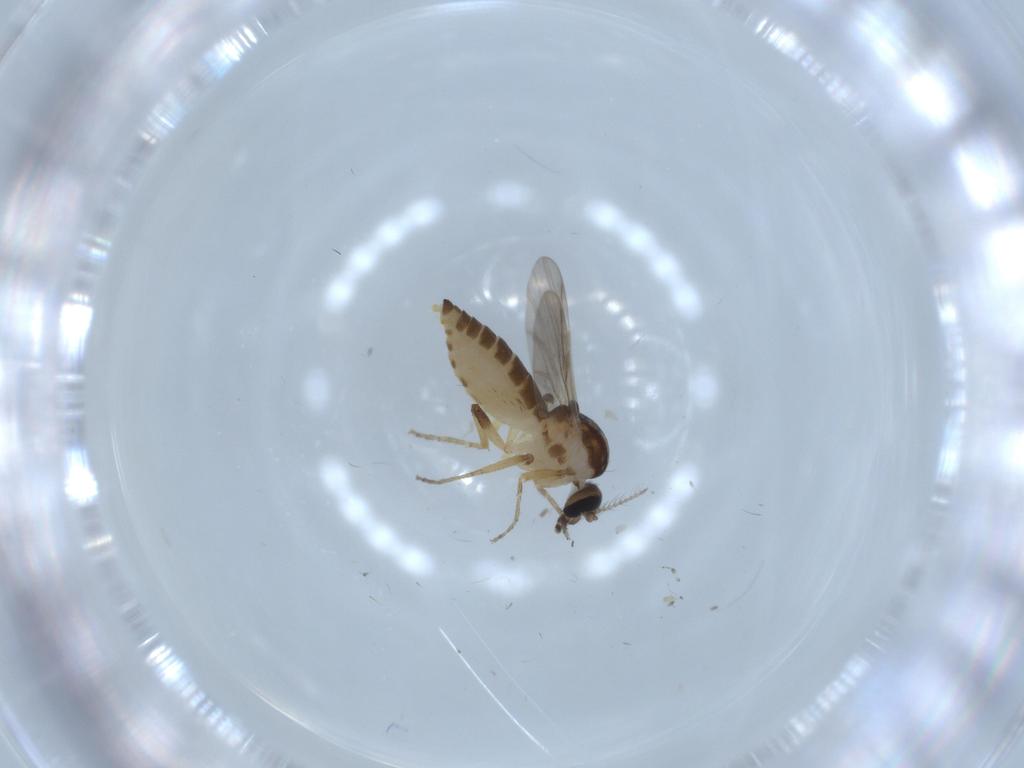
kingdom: Animalia
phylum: Arthropoda
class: Insecta
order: Diptera
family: Cecidomyiidae
